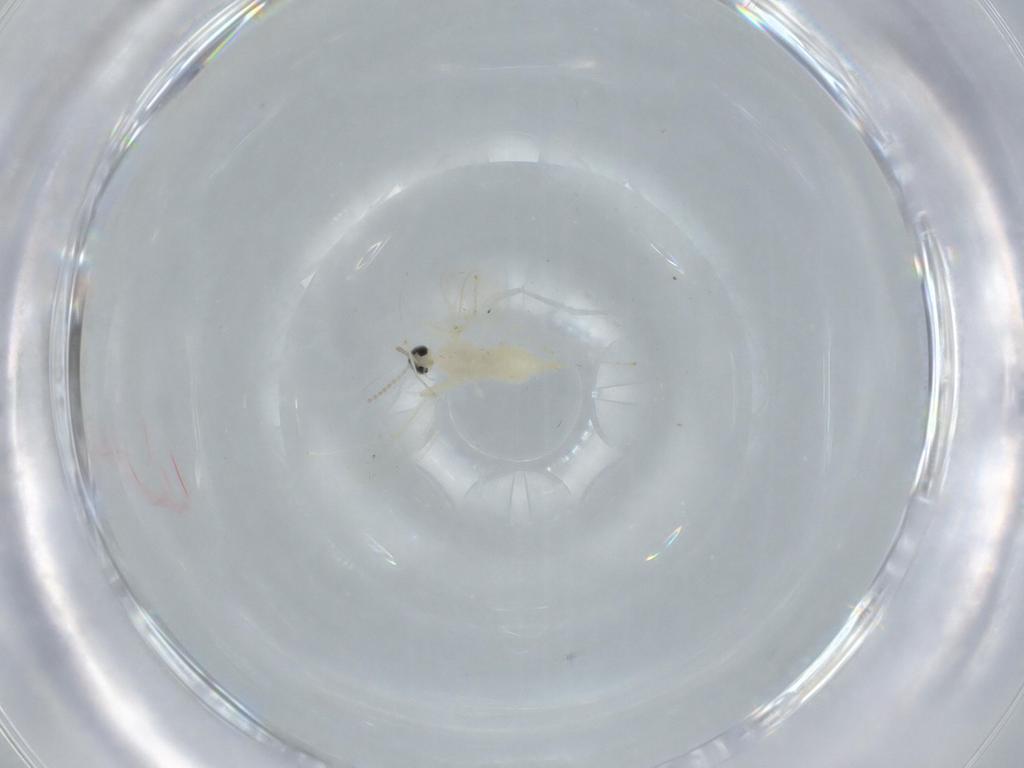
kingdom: Animalia
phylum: Arthropoda
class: Insecta
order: Diptera
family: Cecidomyiidae
